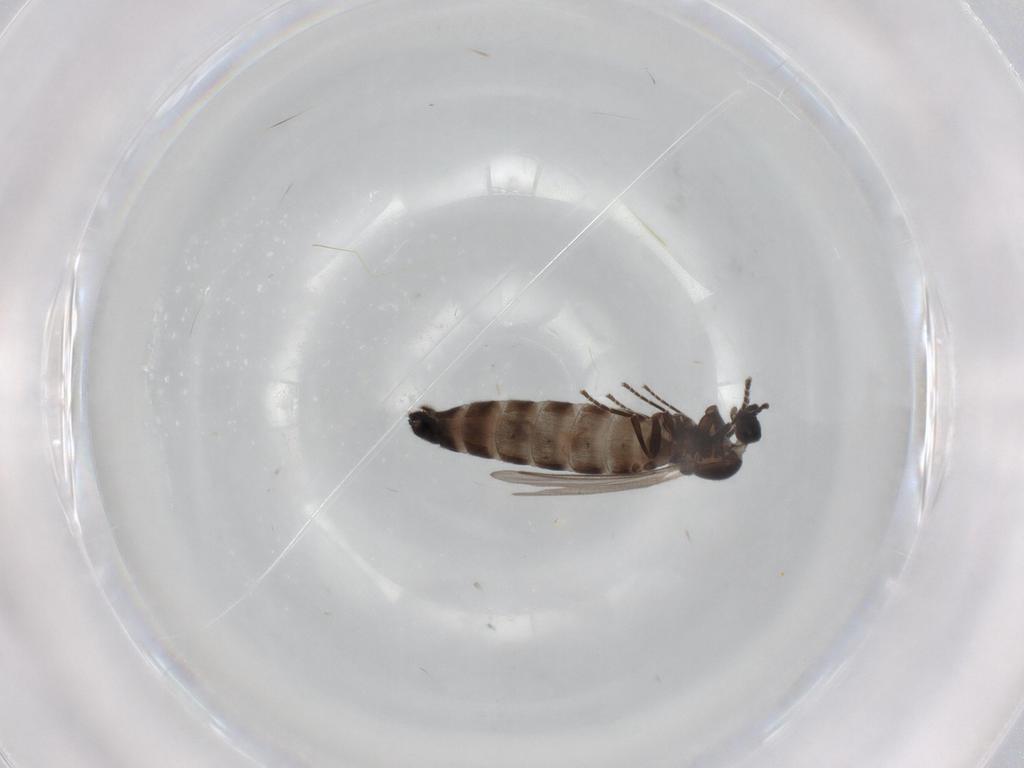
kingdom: Animalia
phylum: Arthropoda
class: Insecta
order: Diptera
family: Scatopsidae
